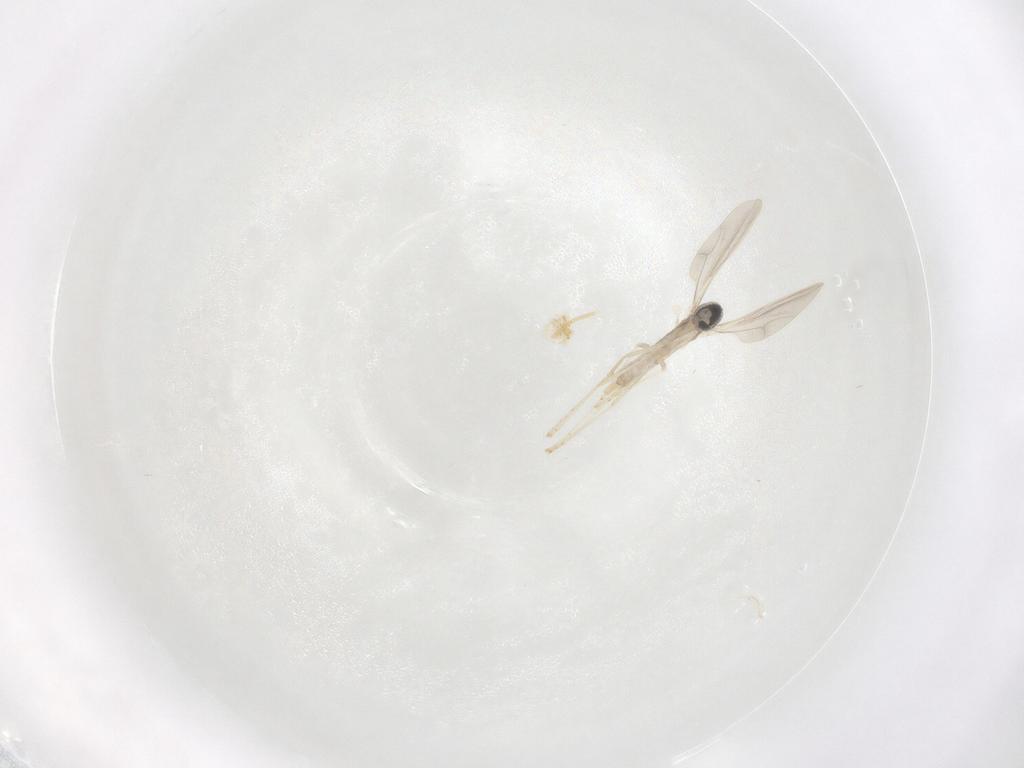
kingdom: Animalia
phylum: Arthropoda
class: Insecta
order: Diptera
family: Cecidomyiidae
